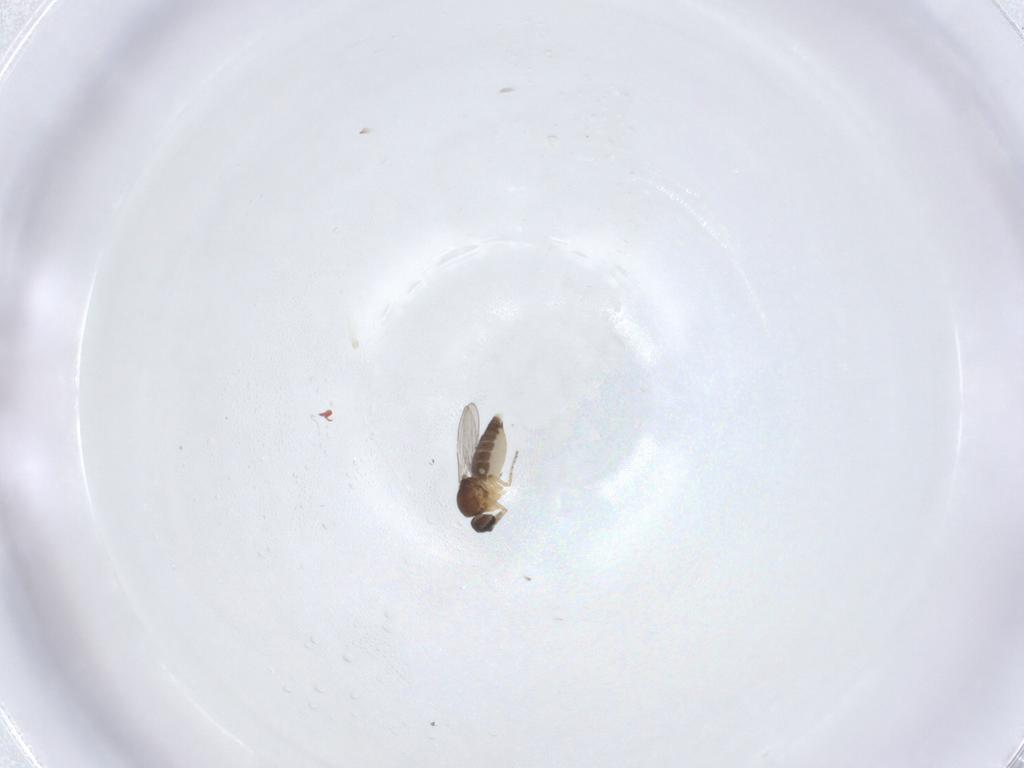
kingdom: Animalia
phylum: Arthropoda
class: Insecta
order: Diptera
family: Ceratopogonidae
